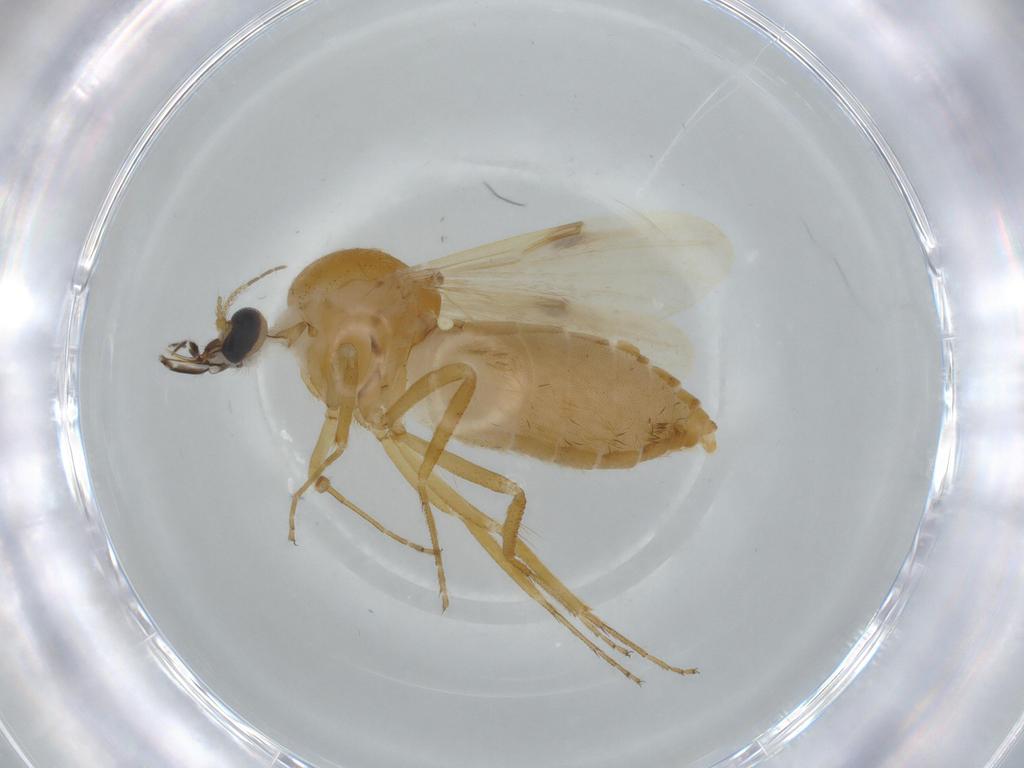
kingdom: Animalia
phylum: Arthropoda
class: Insecta
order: Diptera
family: Ceratopogonidae
